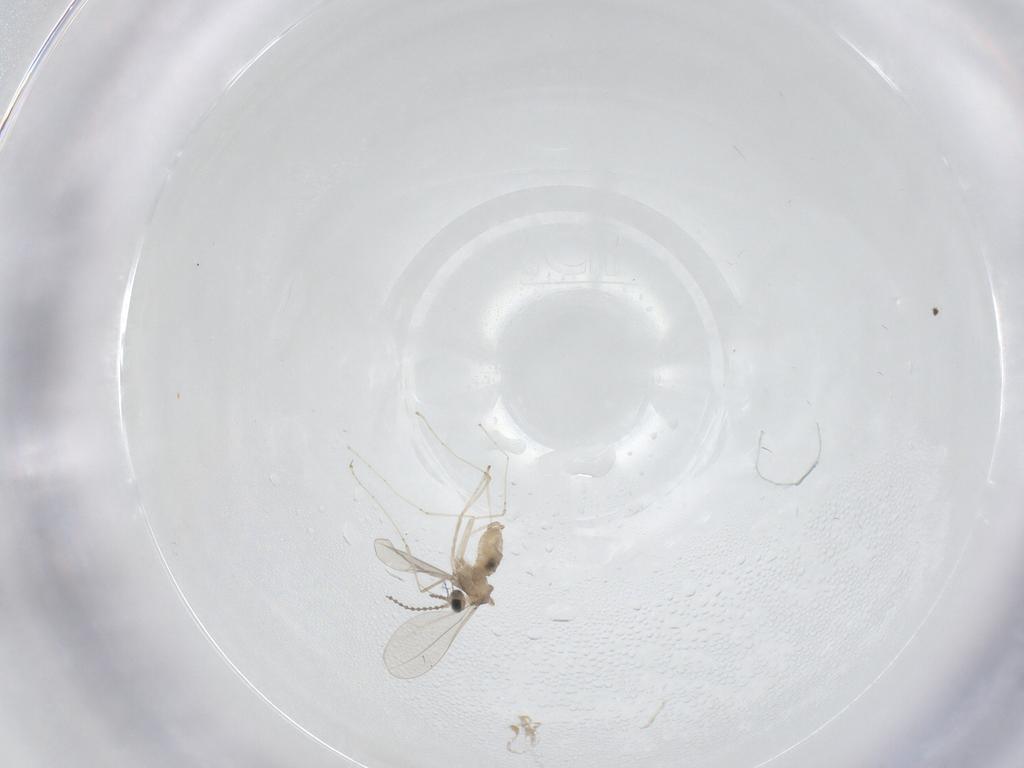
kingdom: Animalia
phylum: Arthropoda
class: Insecta
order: Diptera
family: Cecidomyiidae
